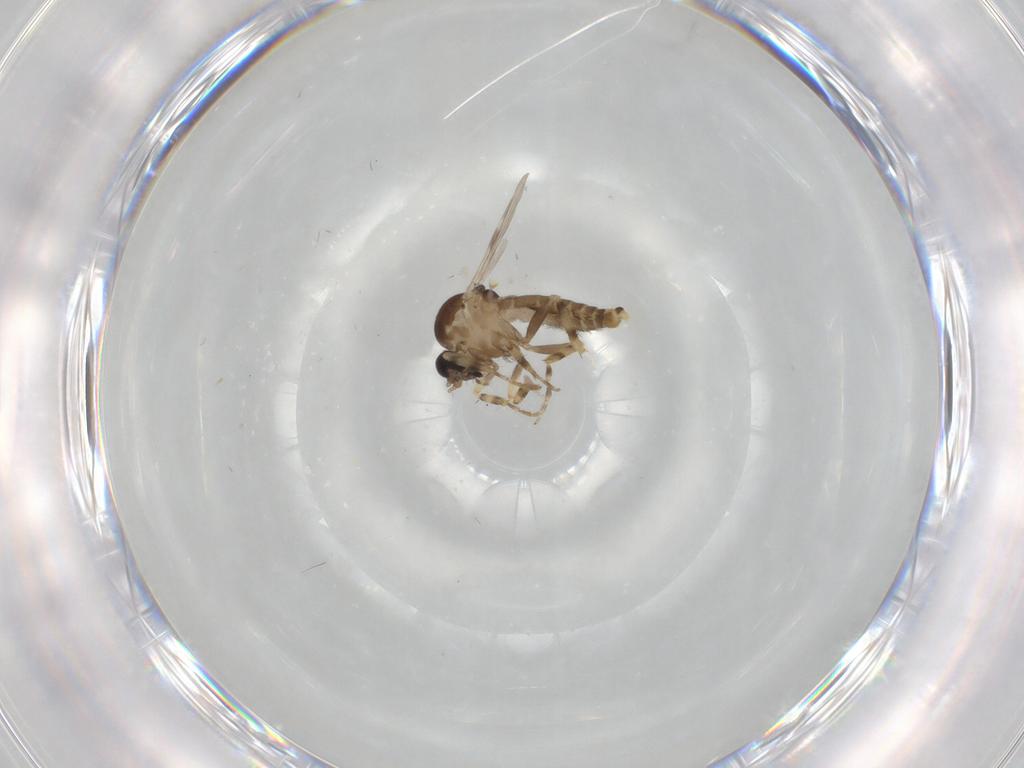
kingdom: Animalia
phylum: Arthropoda
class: Insecta
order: Diptera
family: Ceratopogonidae
